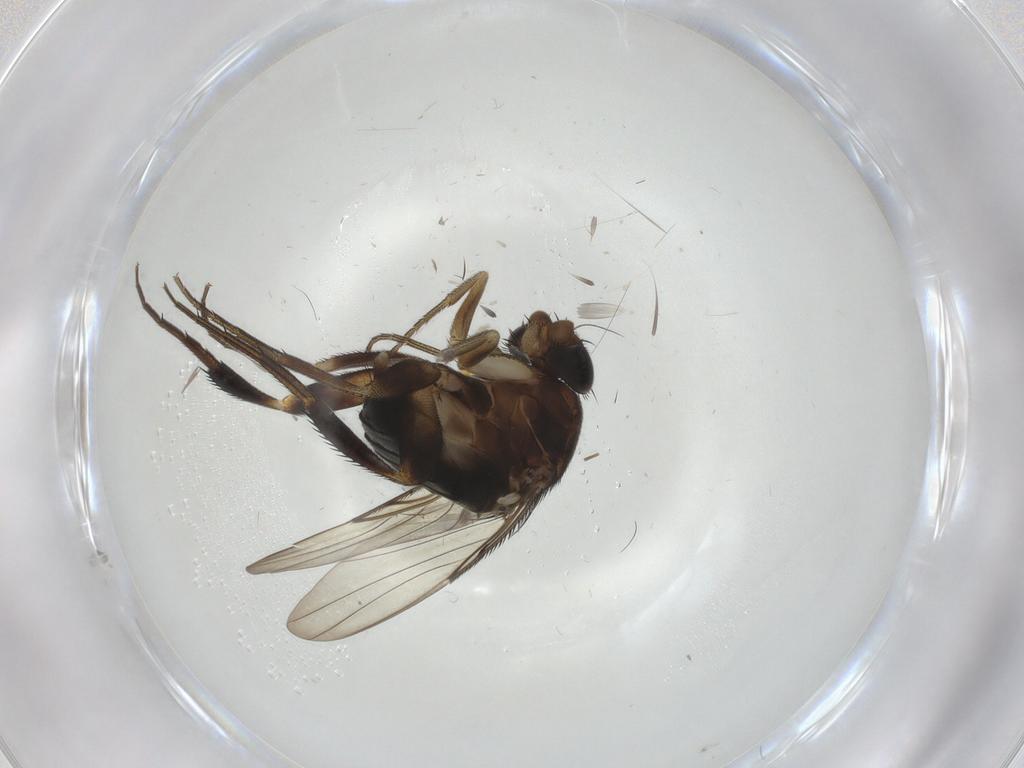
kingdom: Animalia
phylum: Arthropoda
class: Insecta
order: Diptera
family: Phoridae
